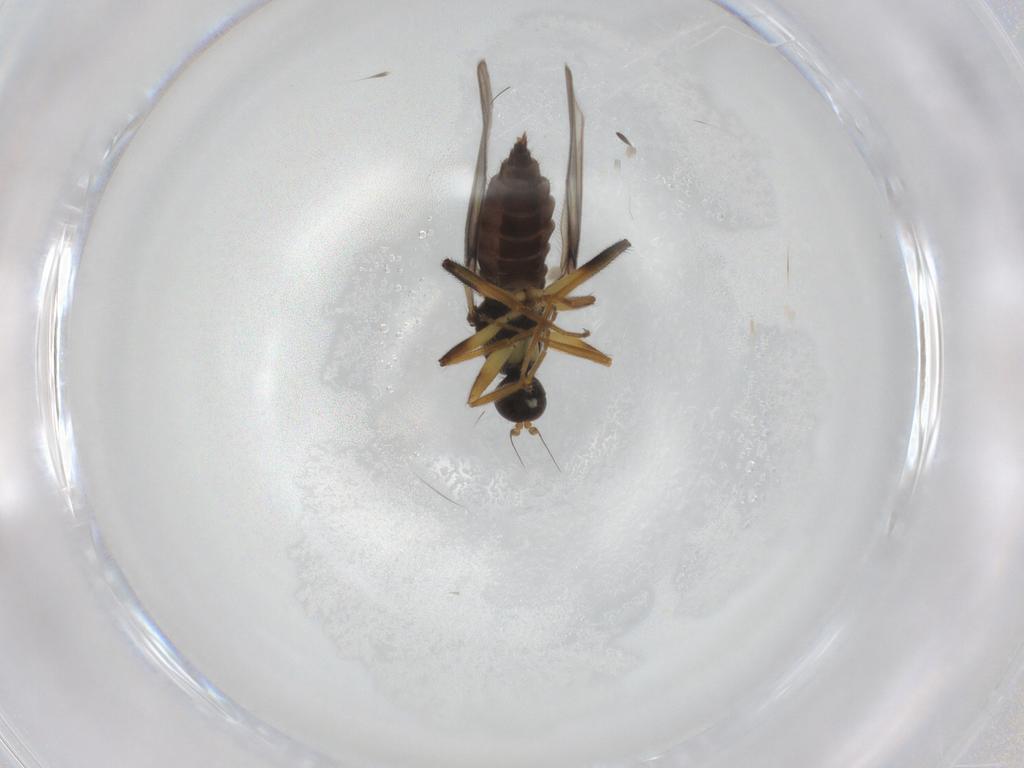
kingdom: Animalia
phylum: Arthropoda
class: Insecta
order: Diptera
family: Hybotidae
